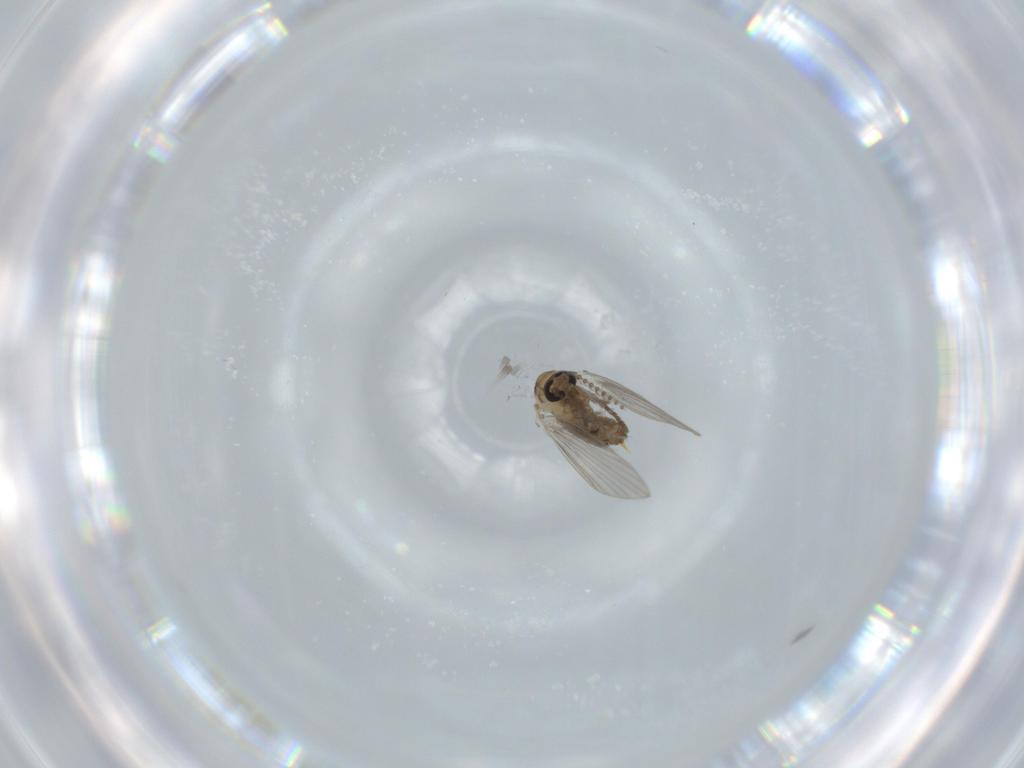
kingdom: Animalia
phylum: Arthropoda
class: Insecta
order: Diptera
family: Psychodidae
